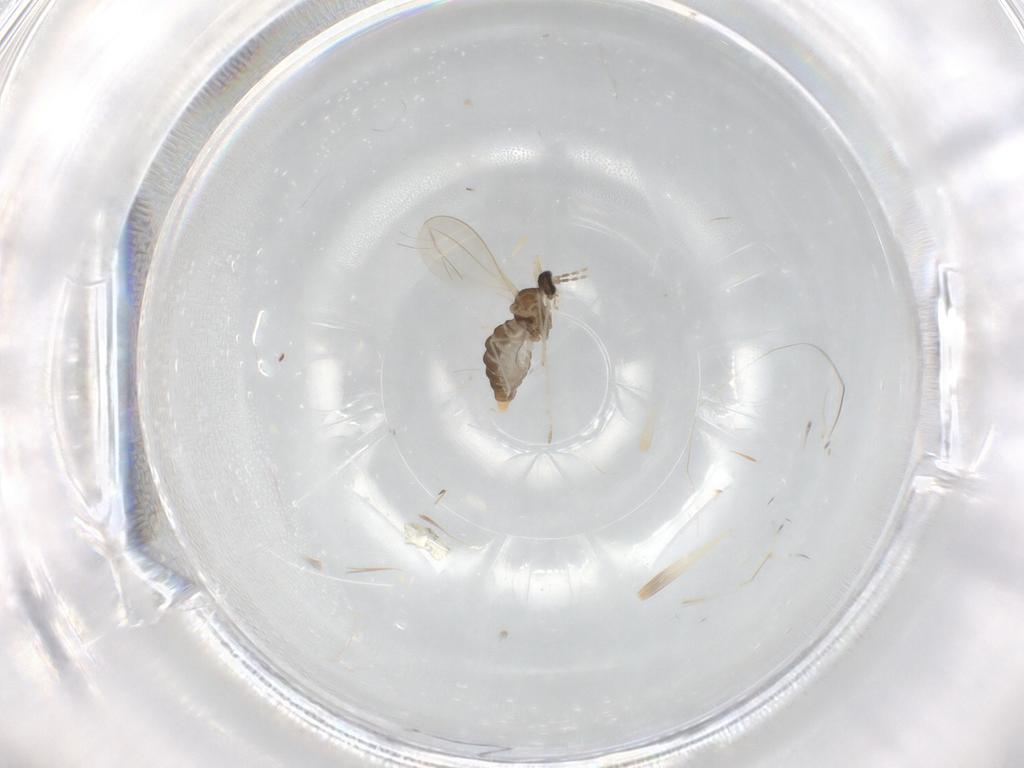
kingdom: Animalia
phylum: Arthropoda
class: Insecta
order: Diptera
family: Cecidomyiidae
